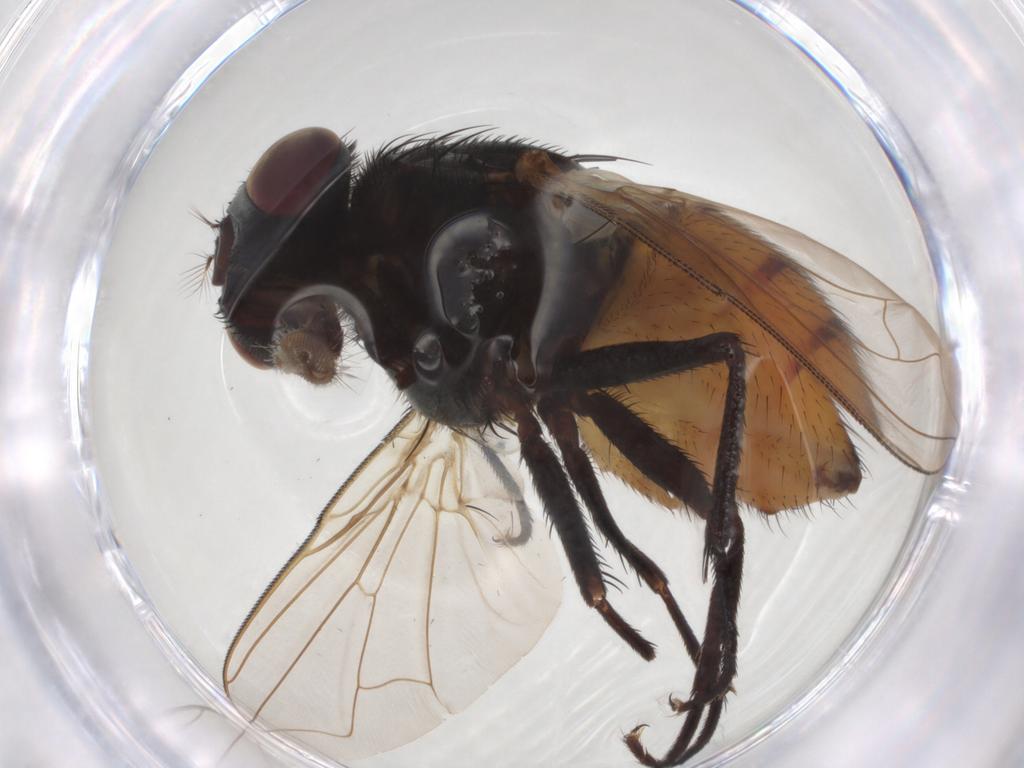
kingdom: Animalia
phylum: Arthropoda
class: Insecta
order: Diptera
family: Muscidae
